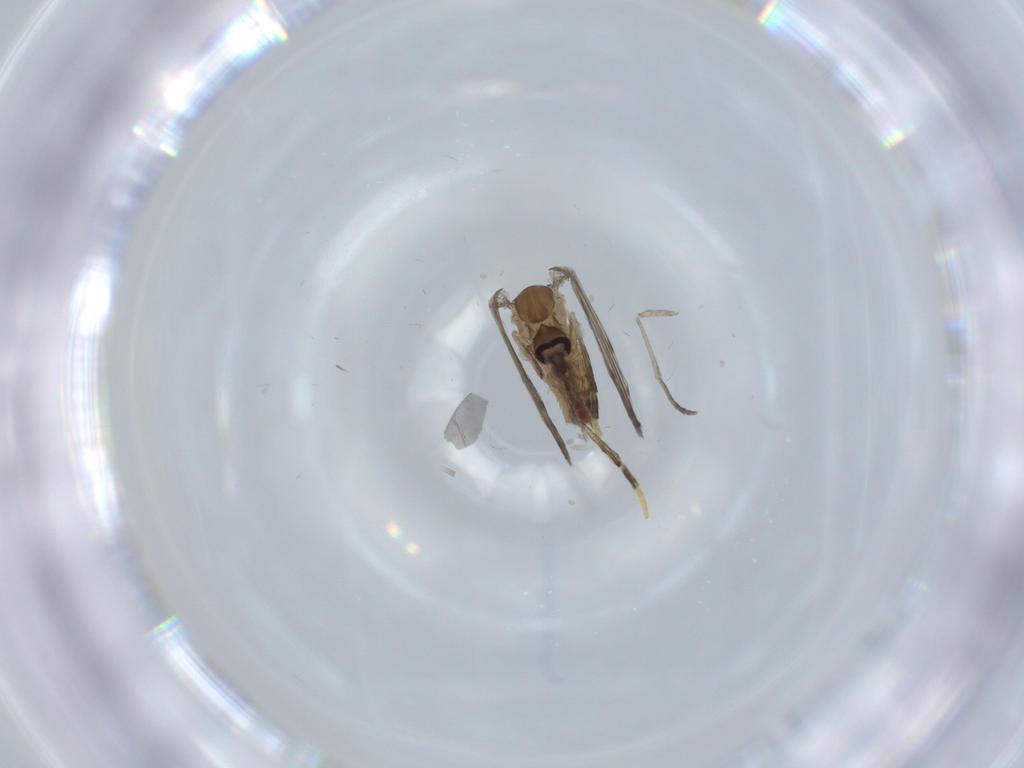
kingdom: Animalia
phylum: Arthropoda
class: Insecta
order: Diptera
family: Psychodidae
